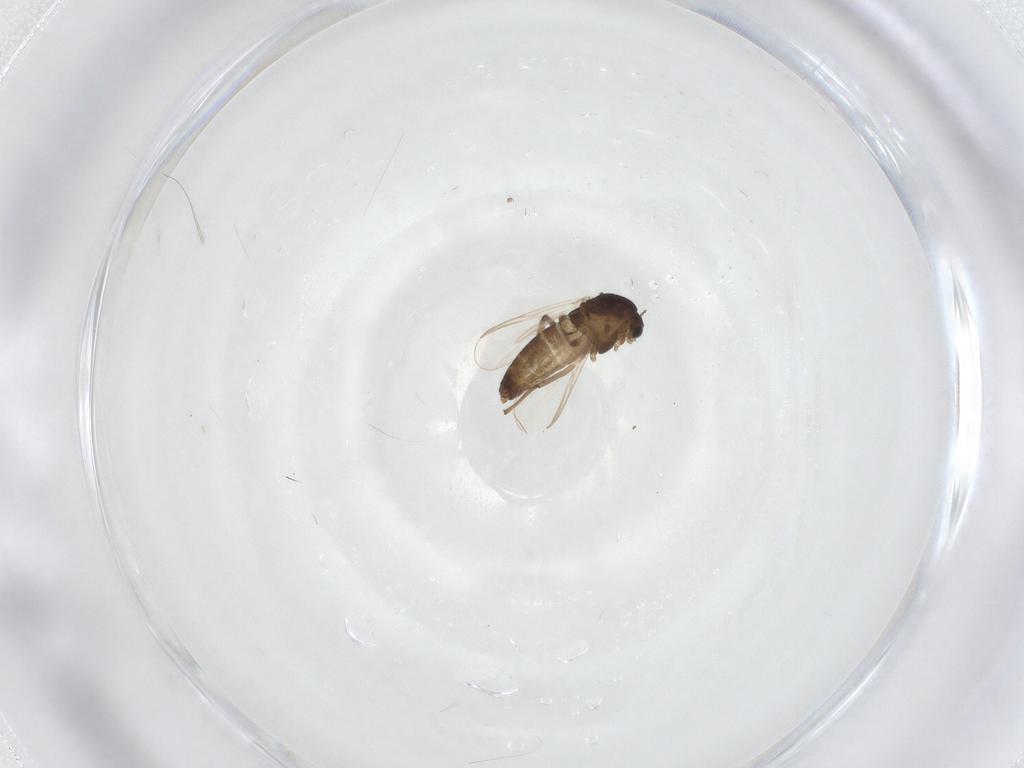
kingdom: Animalia
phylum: Arthropoda
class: Insecta
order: Diptera
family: Chironomidae
